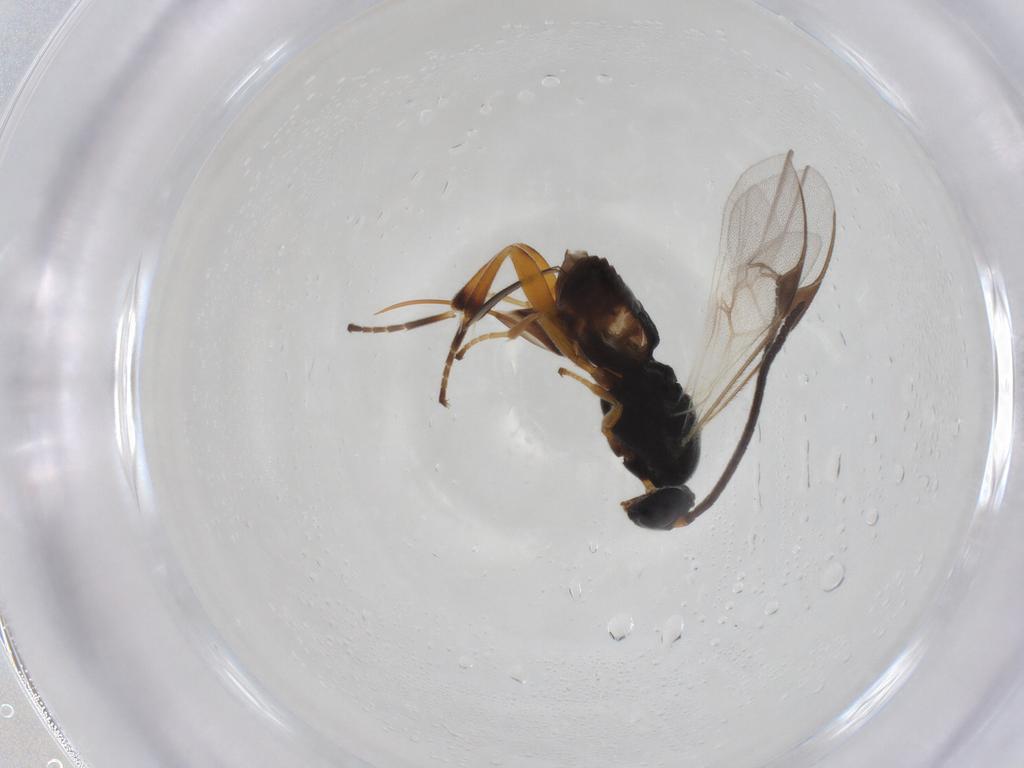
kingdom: Animalia
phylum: Arthropoda
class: Insecta
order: Hymenoptera
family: Braconidae
